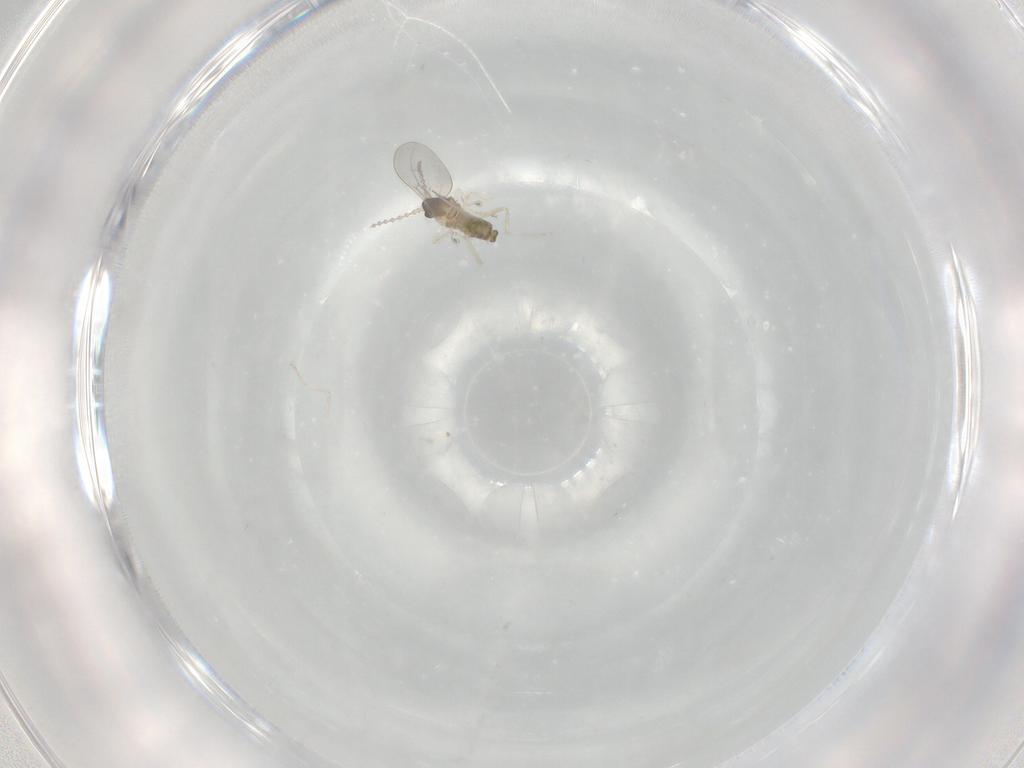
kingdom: Animalia
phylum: Arthropoda
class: Insecta
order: Diptera
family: Cecidomyiidae
